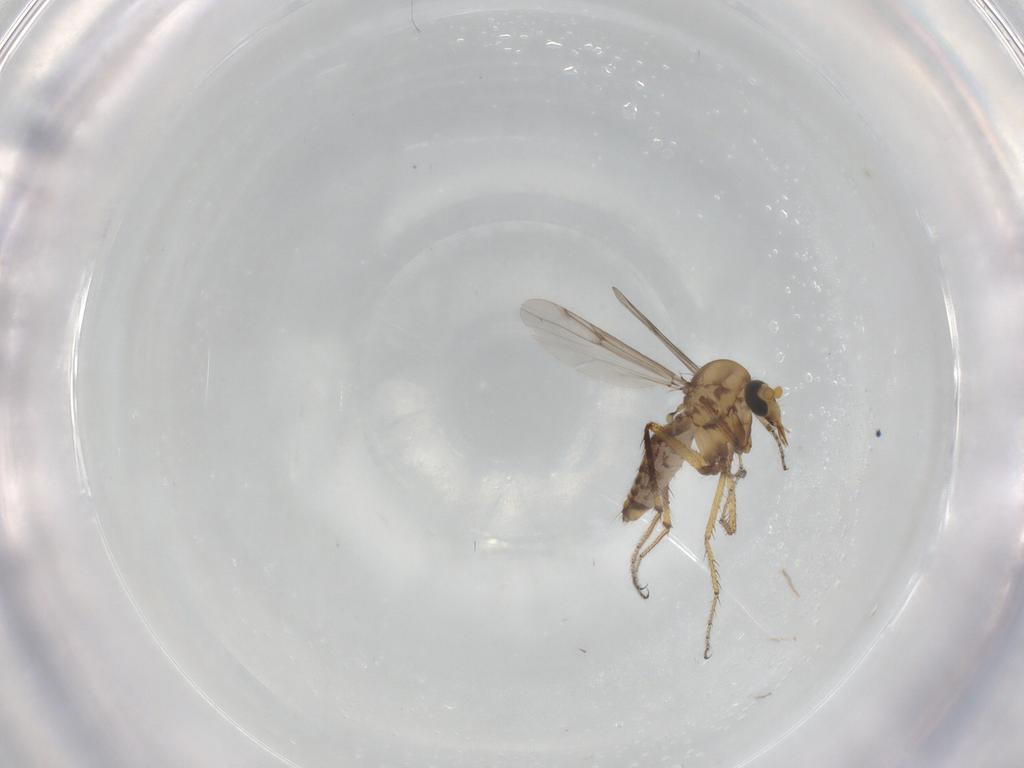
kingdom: Animalia
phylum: Arthropoda
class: Insecta
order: Diptera
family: Ceratopogonidae
